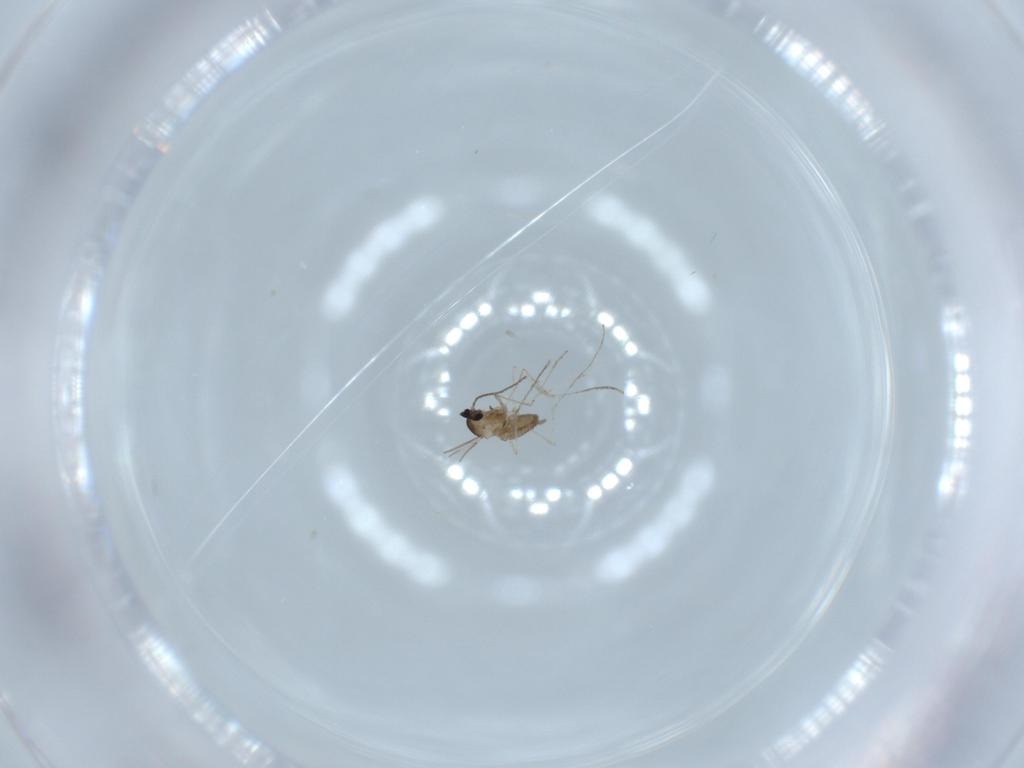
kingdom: Animalia
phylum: Arthropoda
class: Insecta
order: Diptera
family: Cecidomyiidae
